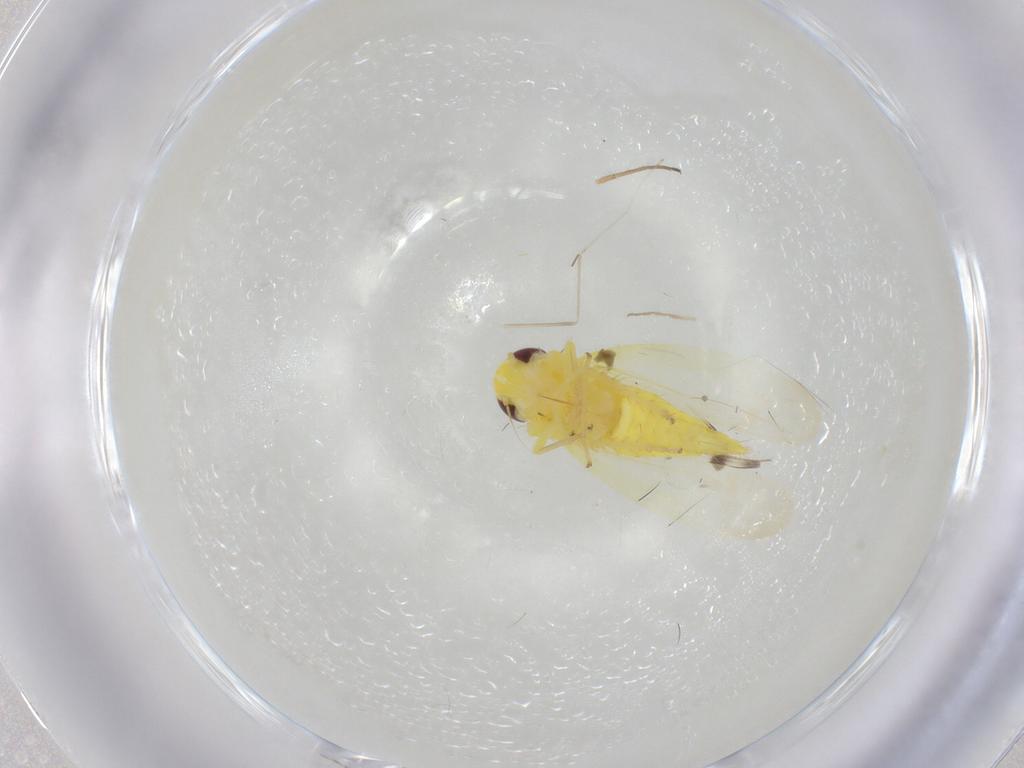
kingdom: Animalia
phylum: Arthropoda
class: Insecta
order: Hemiptera
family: Cicadellidae
